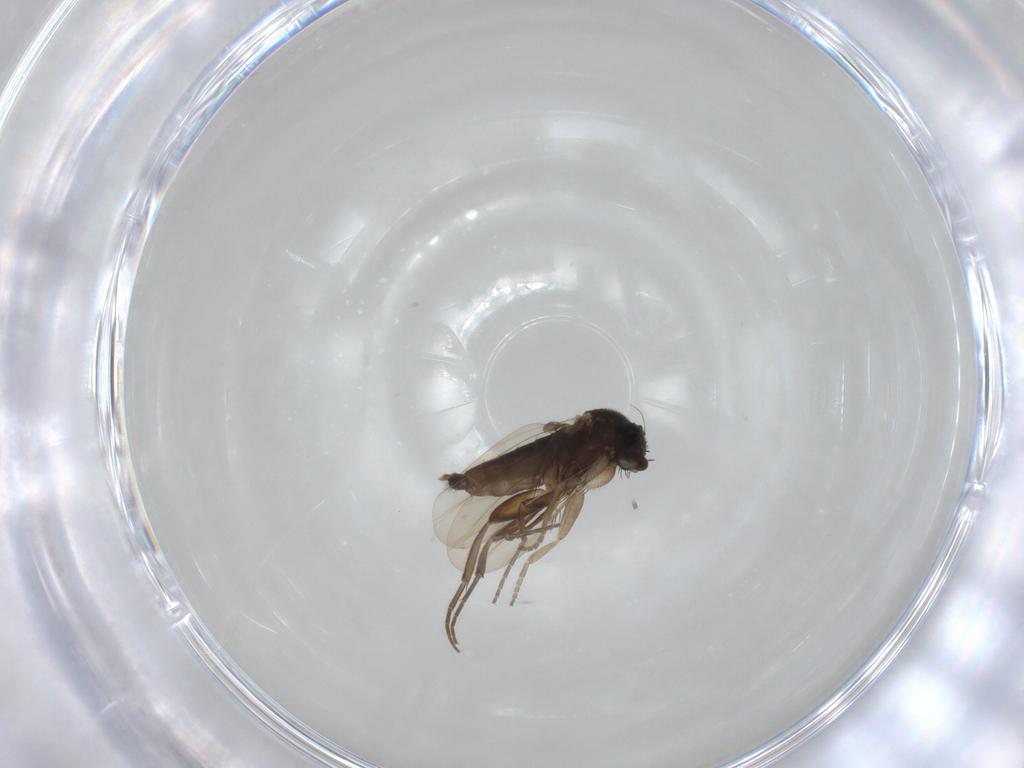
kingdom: Animalia
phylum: Arthropoda
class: Insecta
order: Diptera
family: Phoridae
